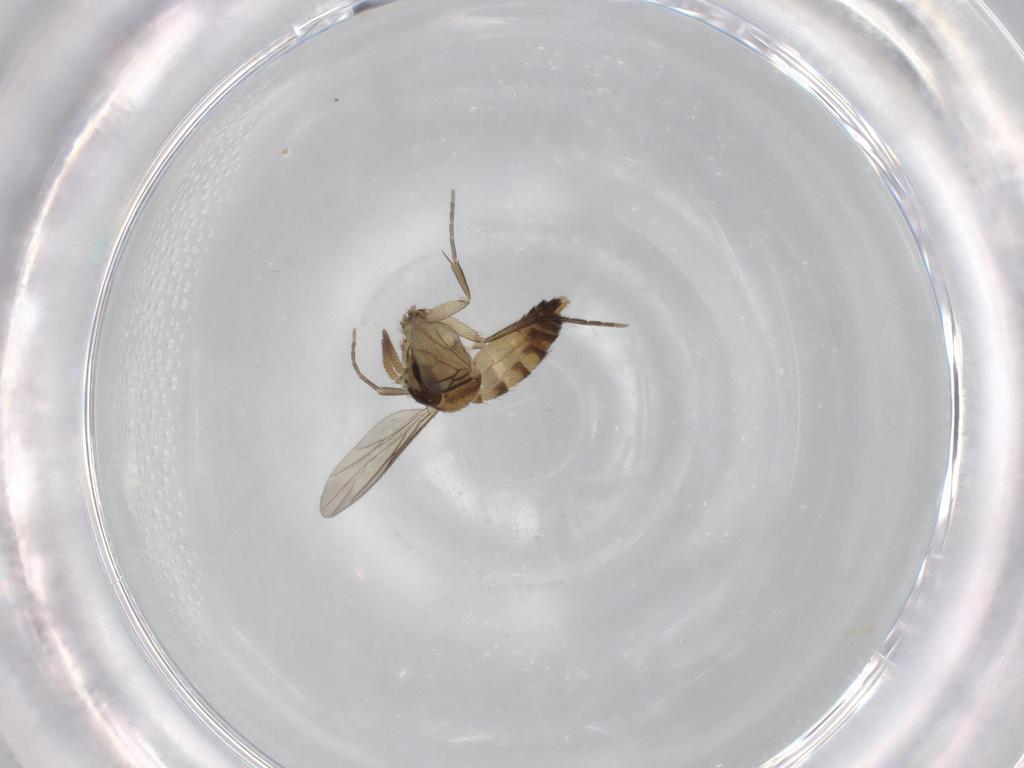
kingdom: Animalia
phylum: Arthropoda
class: Insecta
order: Diptera
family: Mycetophilidae
